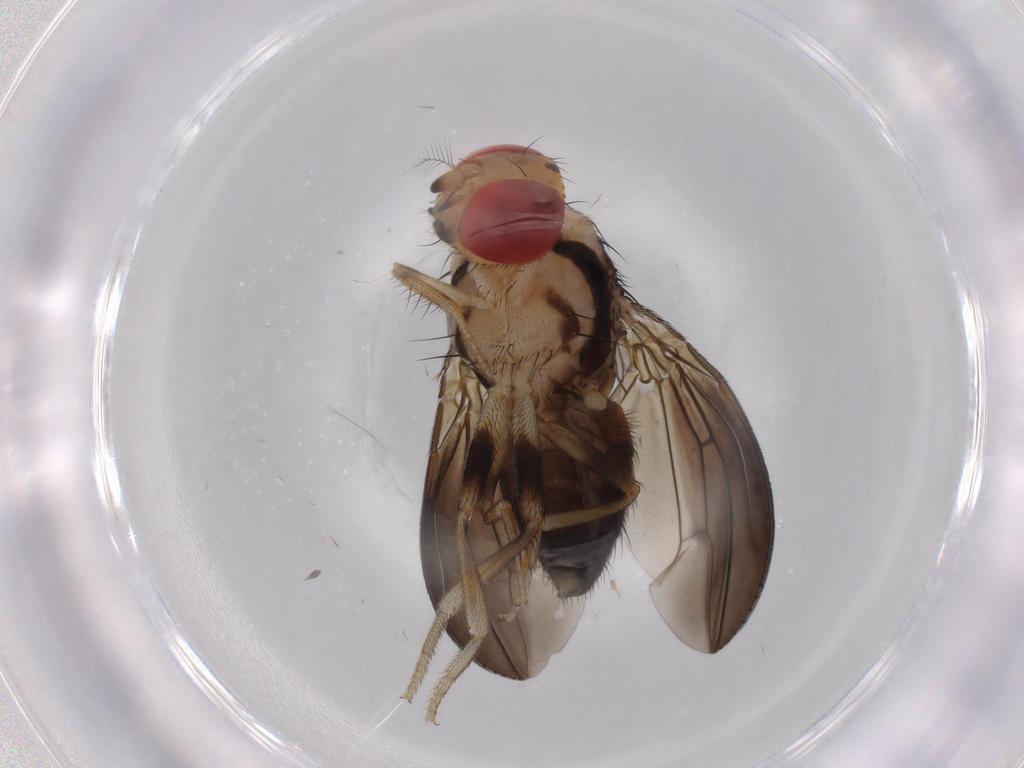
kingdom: Animalia
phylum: Arthropoda
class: Insecta
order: Diptera
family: Drosophilidae
